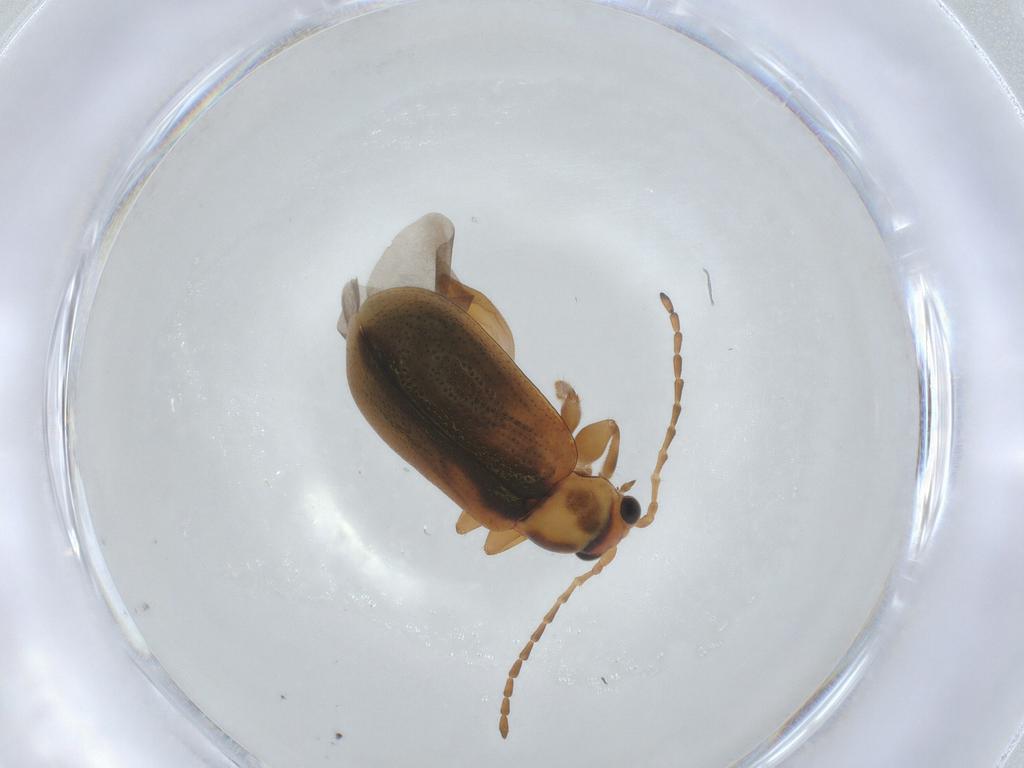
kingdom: Animalia
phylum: Arthropoda
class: Insecta
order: Coleoptera
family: Chrysomelidae
